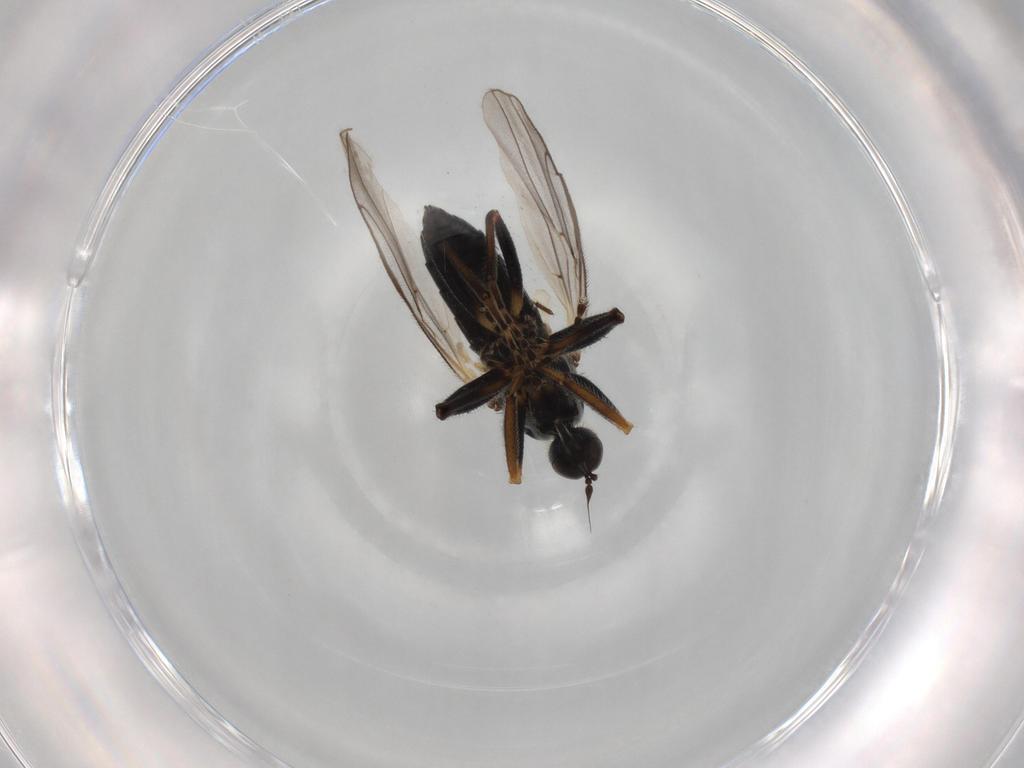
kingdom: Animalia
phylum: Arthropoda
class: Insecta
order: Diptera
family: Hybotidae
